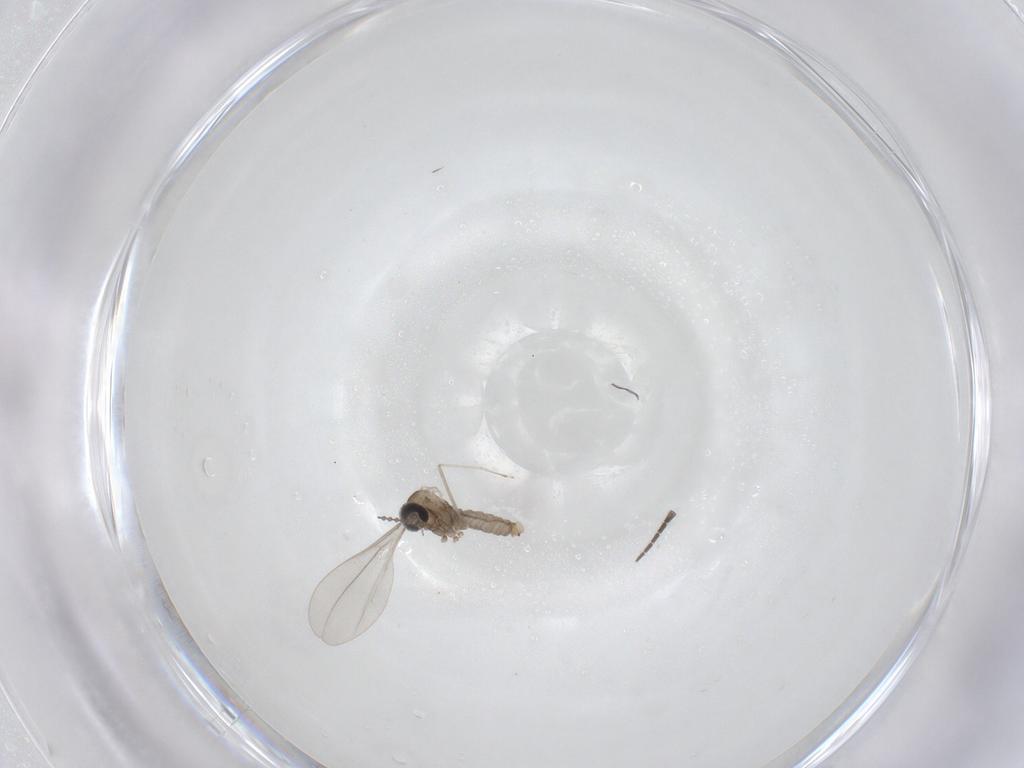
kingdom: Animalia
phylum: Arthropoda
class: Insecta
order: Diptera
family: Sciaridae
